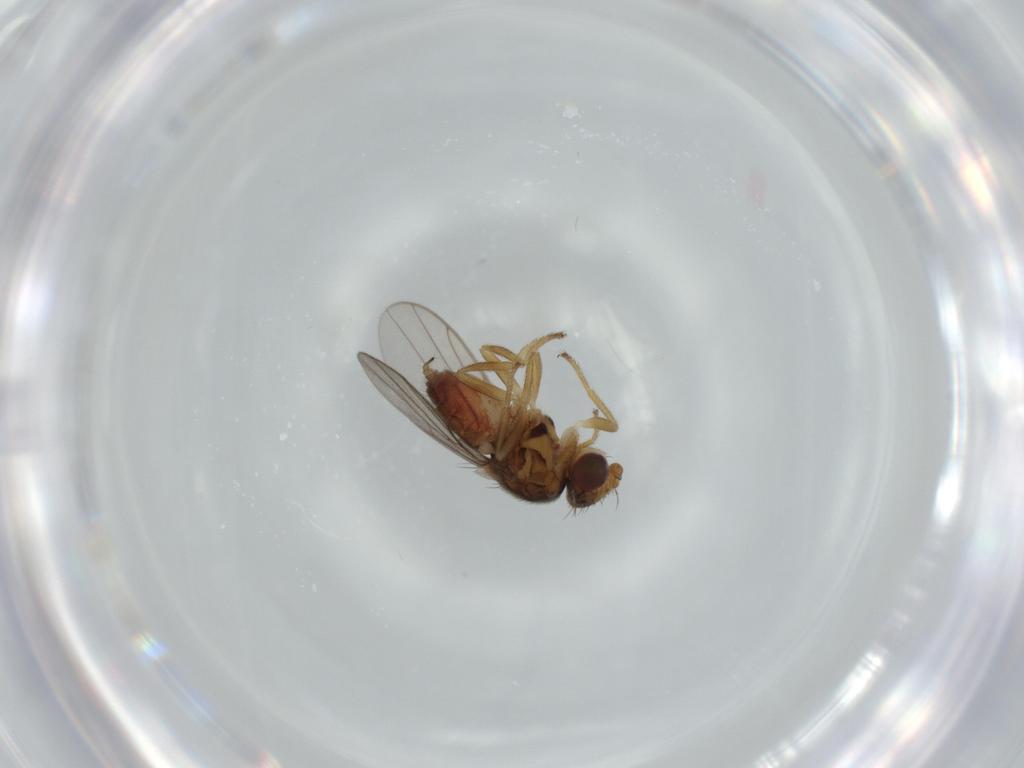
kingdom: Animalia
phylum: Arthropoda
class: Insecta
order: Diptera
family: Chloropidae
